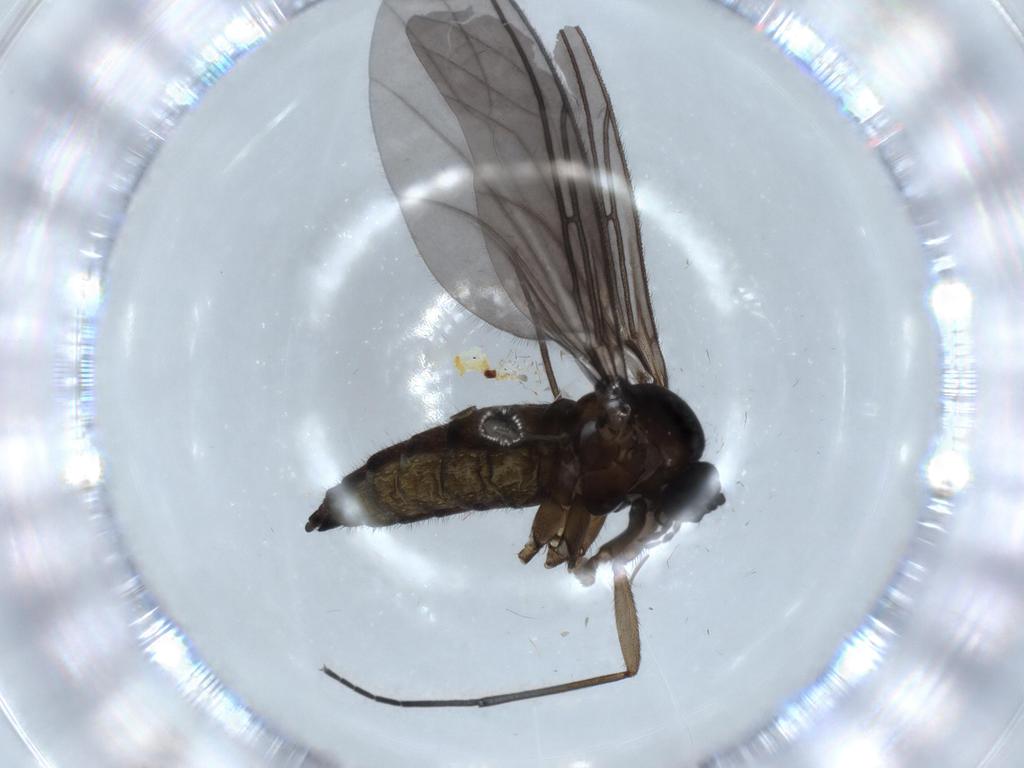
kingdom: Animalia
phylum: Arthropoda
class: Insecta
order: Diptera
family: Sciaridae
